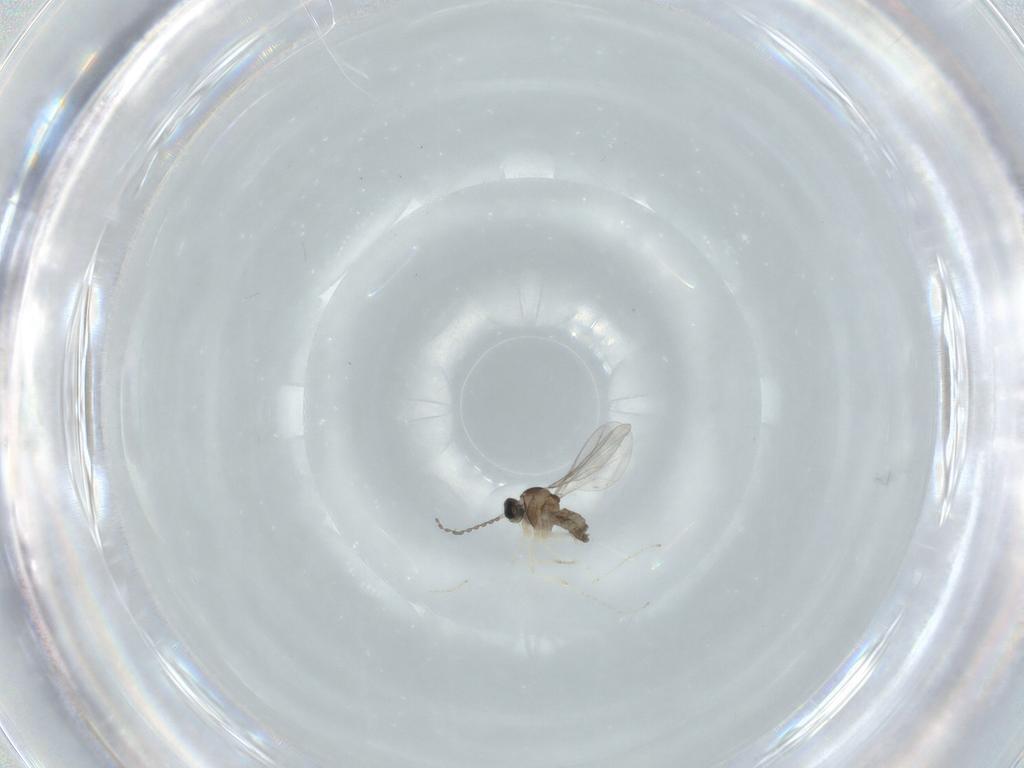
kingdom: Animalia
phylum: Arthropoda
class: Insecta
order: Diptera
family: Cecidomyiidae
